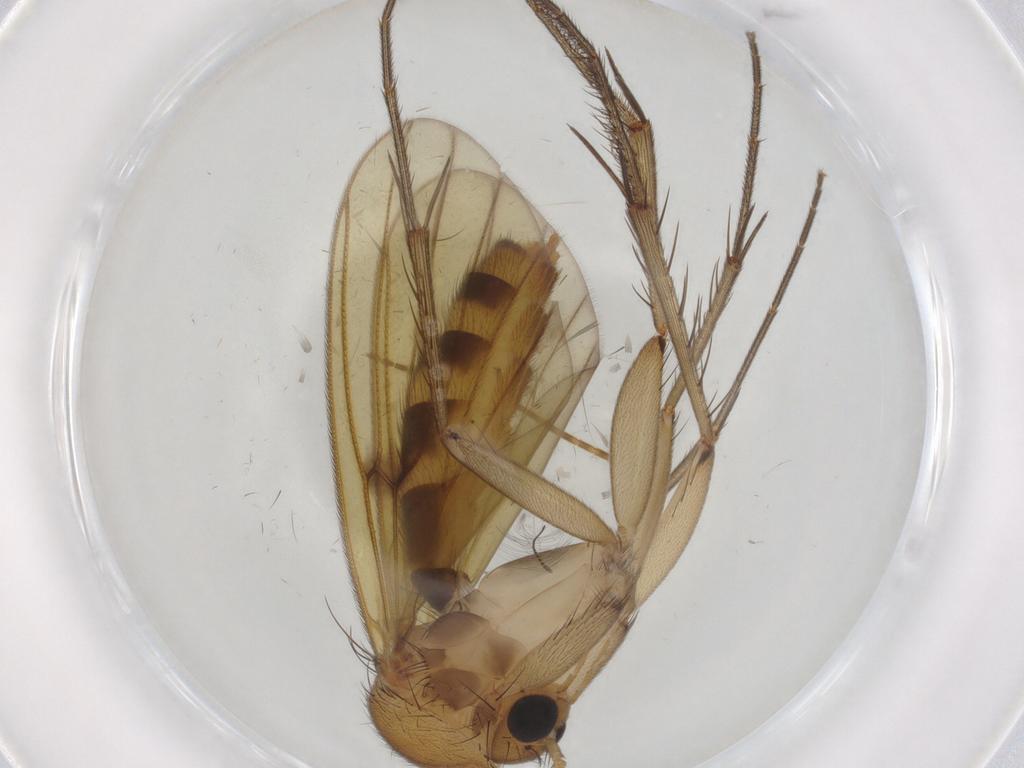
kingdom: Animalia
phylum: Arthropoda
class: Insecta
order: Diptera
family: Mycetophilidae
